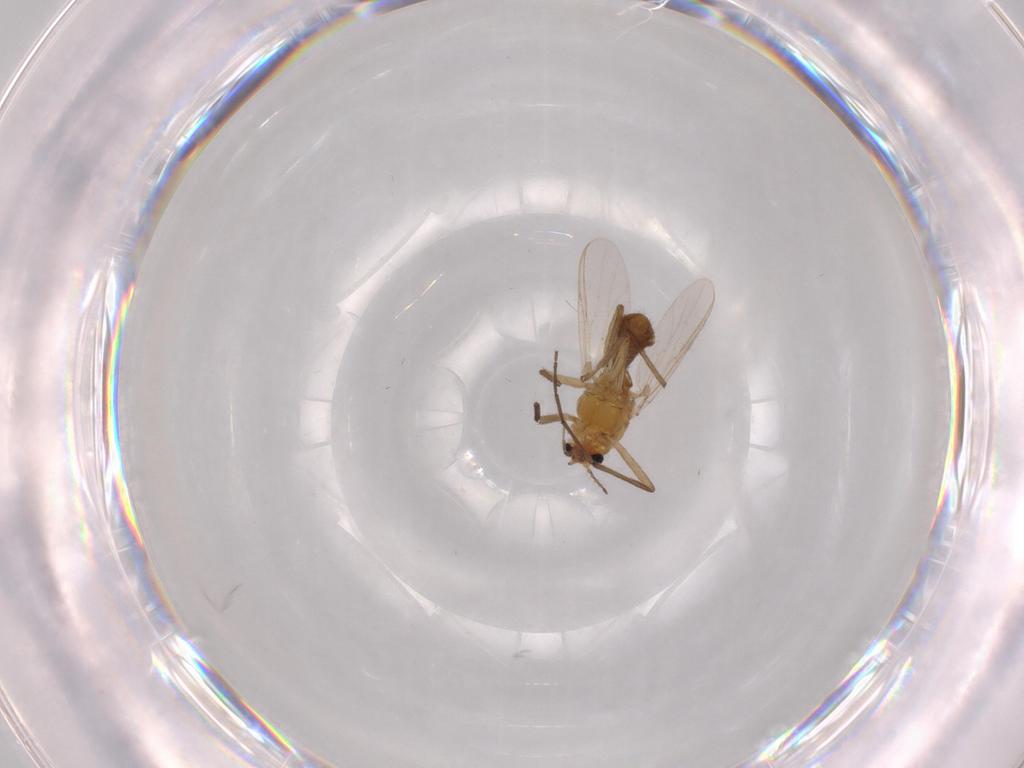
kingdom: Animalia
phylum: Arthropoda
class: Insecta
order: Diptera
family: Chironomidae
